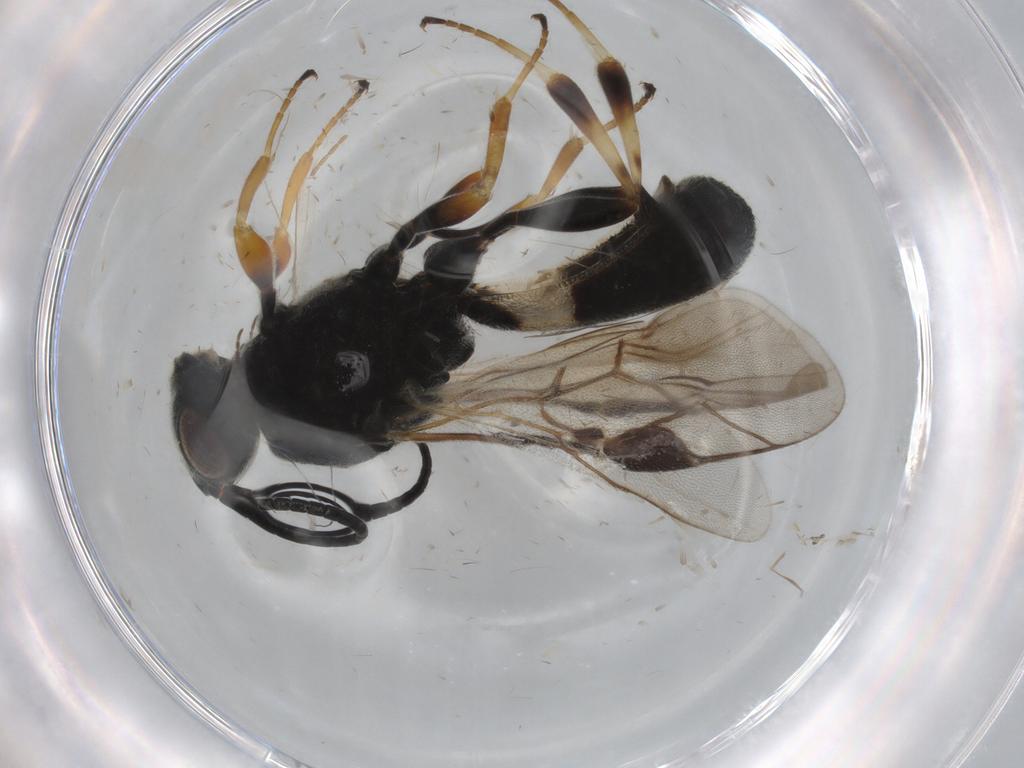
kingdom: Animalia
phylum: Arthropoda
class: Insecta
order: Hymenoptera
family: Braconidae
